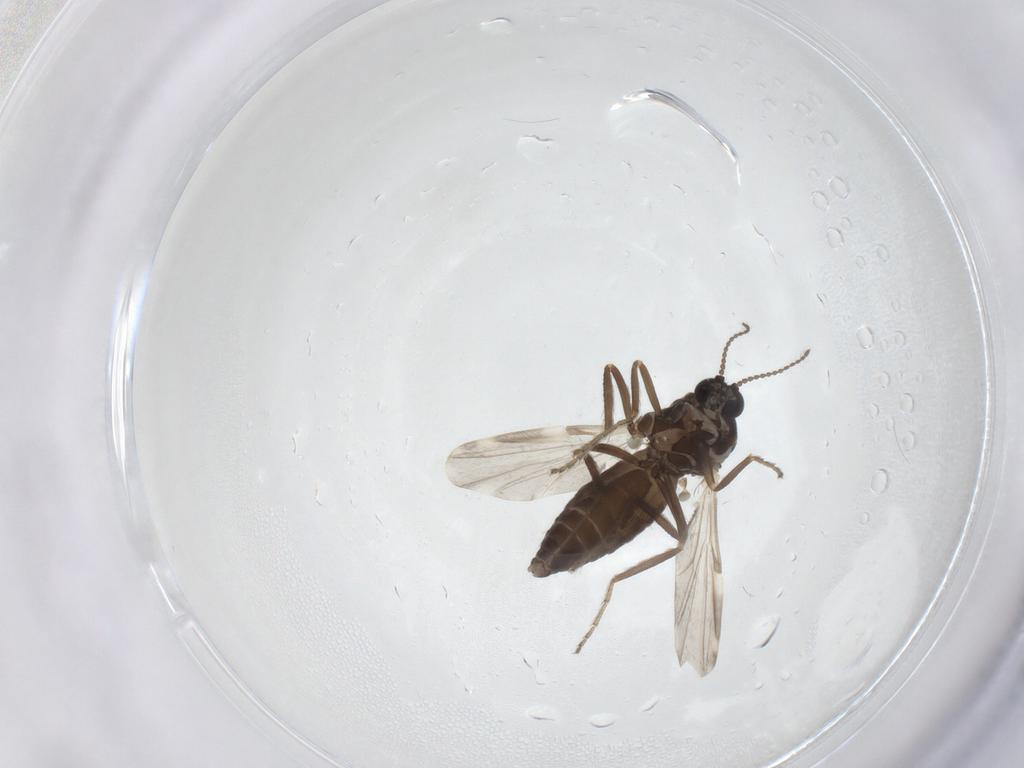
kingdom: Animalia
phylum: Arthropoda
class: Insecta
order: Diptera
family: Ceratopogonidae
